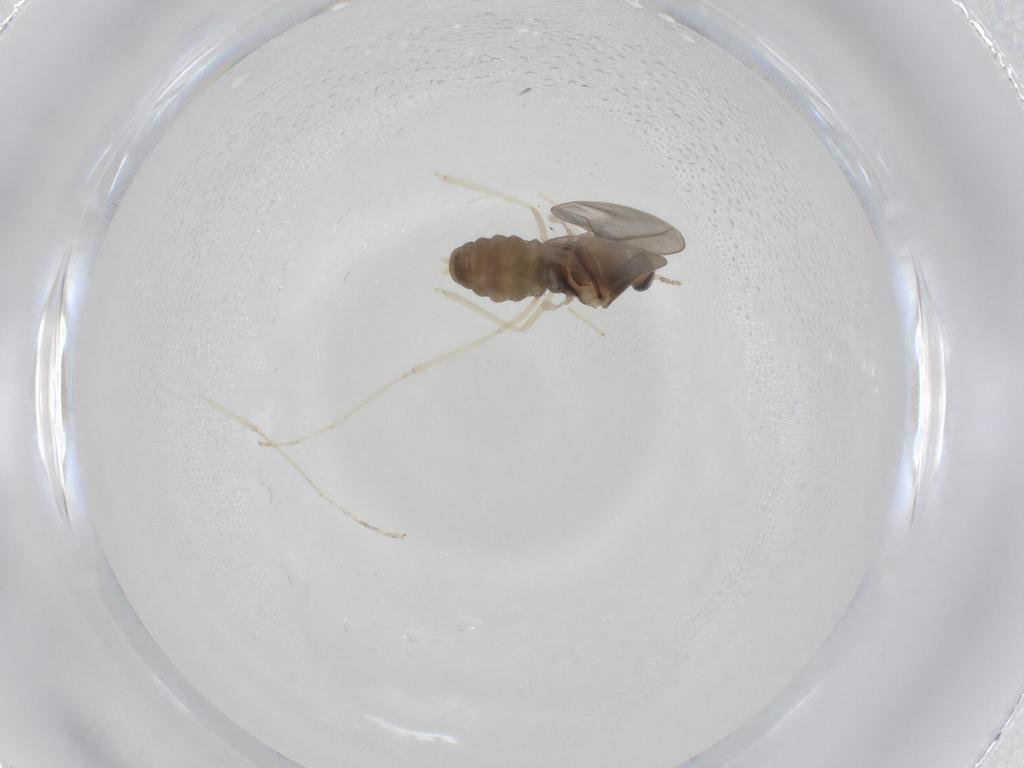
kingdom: Animalia
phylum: Arthropoda
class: Insecta
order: Diptera
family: Cecidomyiidae
